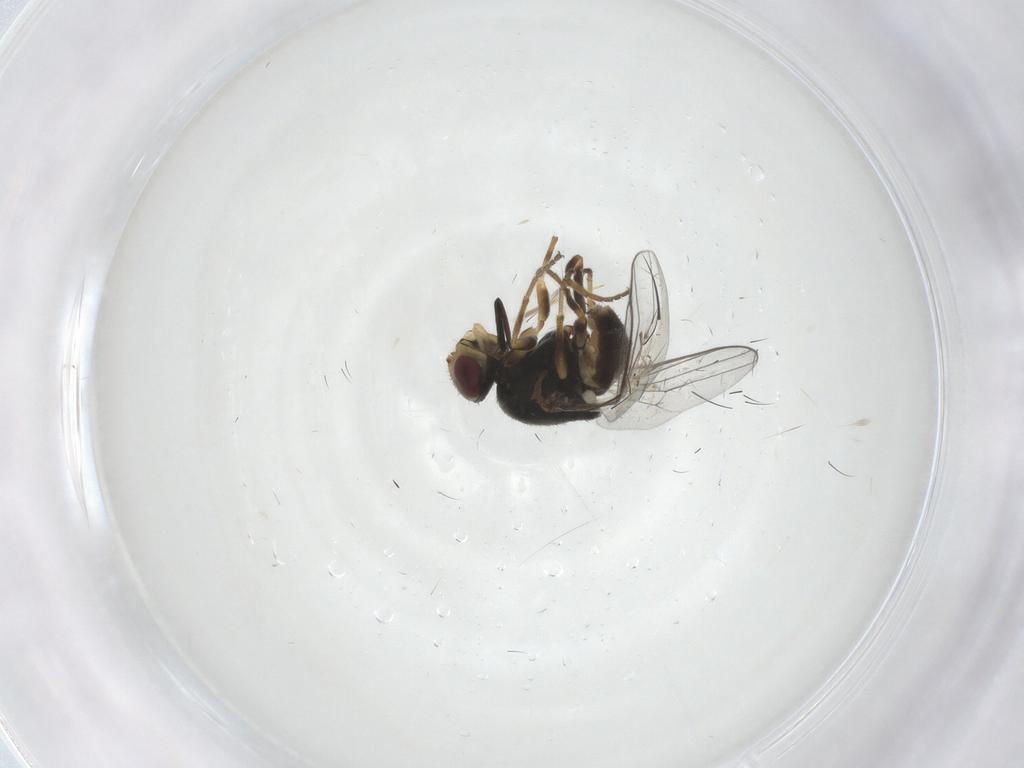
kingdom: Animalia
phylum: Arthropoda
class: Insecta
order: Diptera
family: Chloropidae
